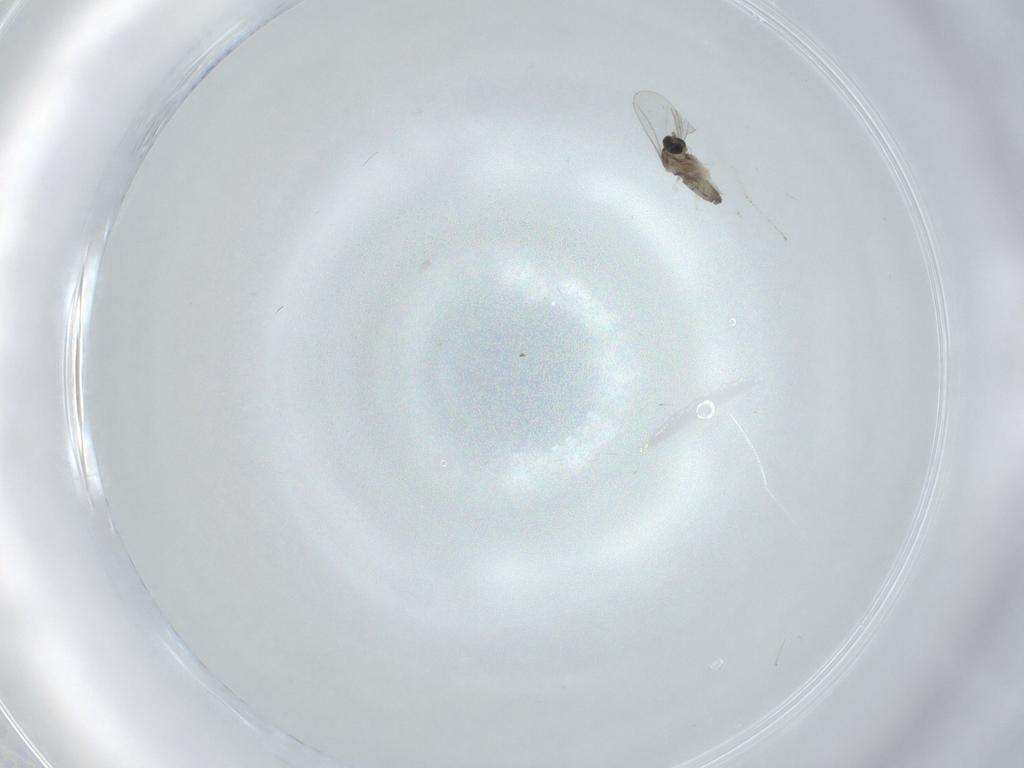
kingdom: Animalia
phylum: Arthropoda
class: Insecta
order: Diptera
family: Cecidomyiidae
